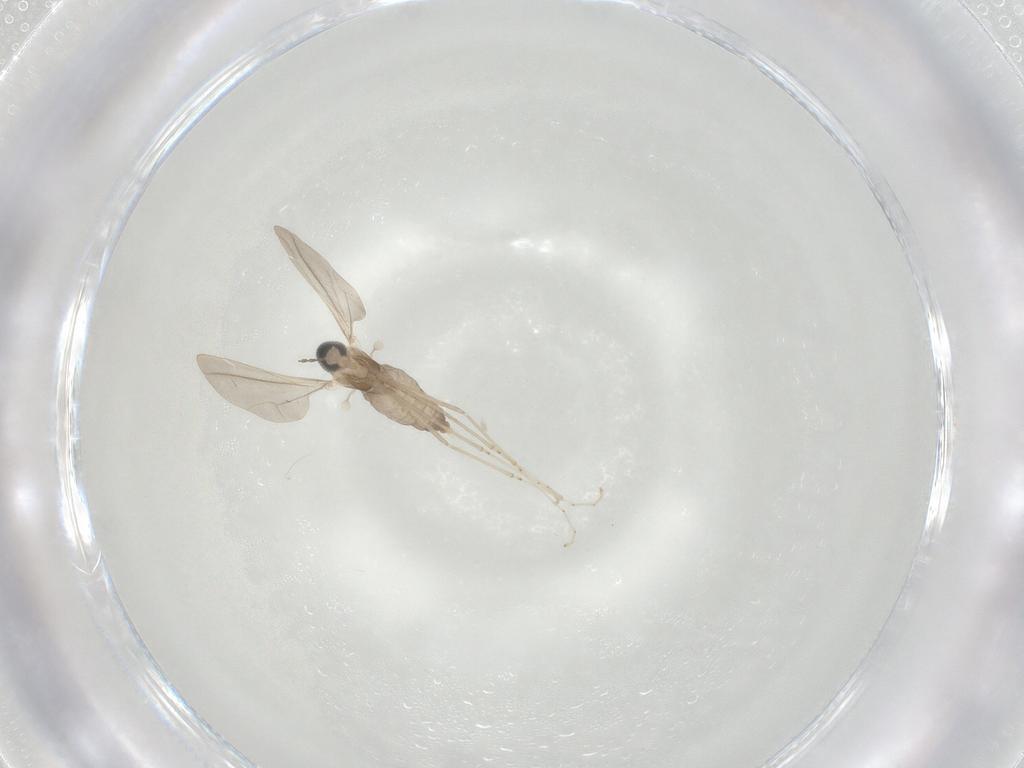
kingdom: Animalia
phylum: Arthropoda
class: Insecta
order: Diptera
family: Cecidomyiidae
